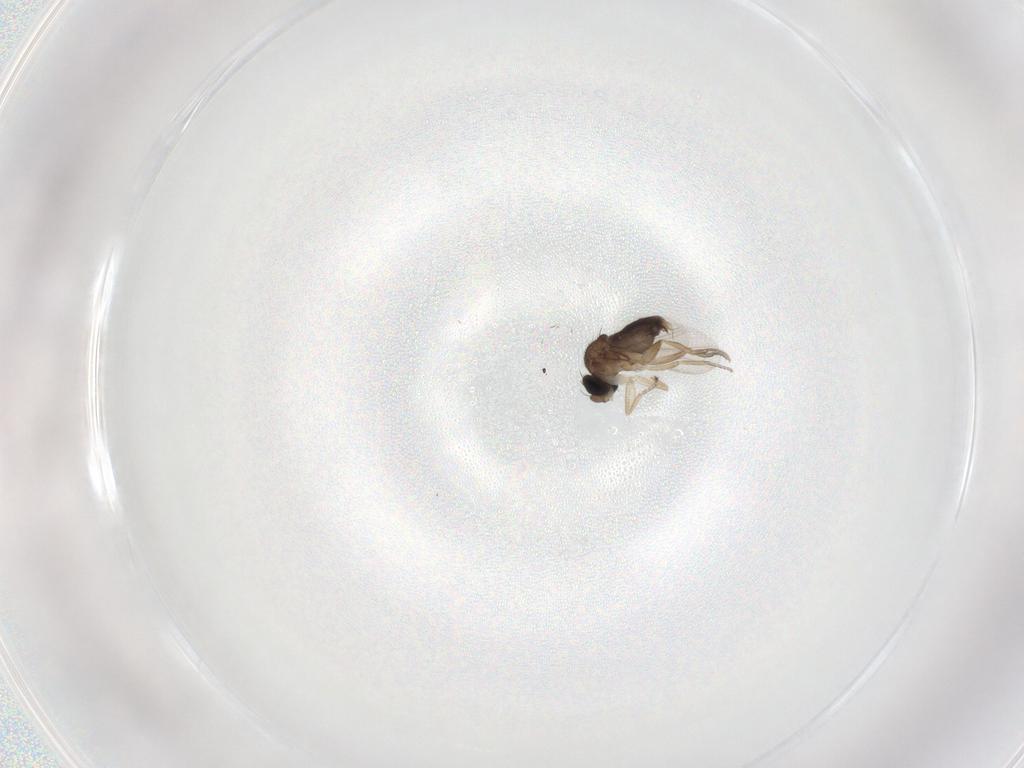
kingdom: Animalia
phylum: Arthropoda
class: Insecta
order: Diptera
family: Phoridae
